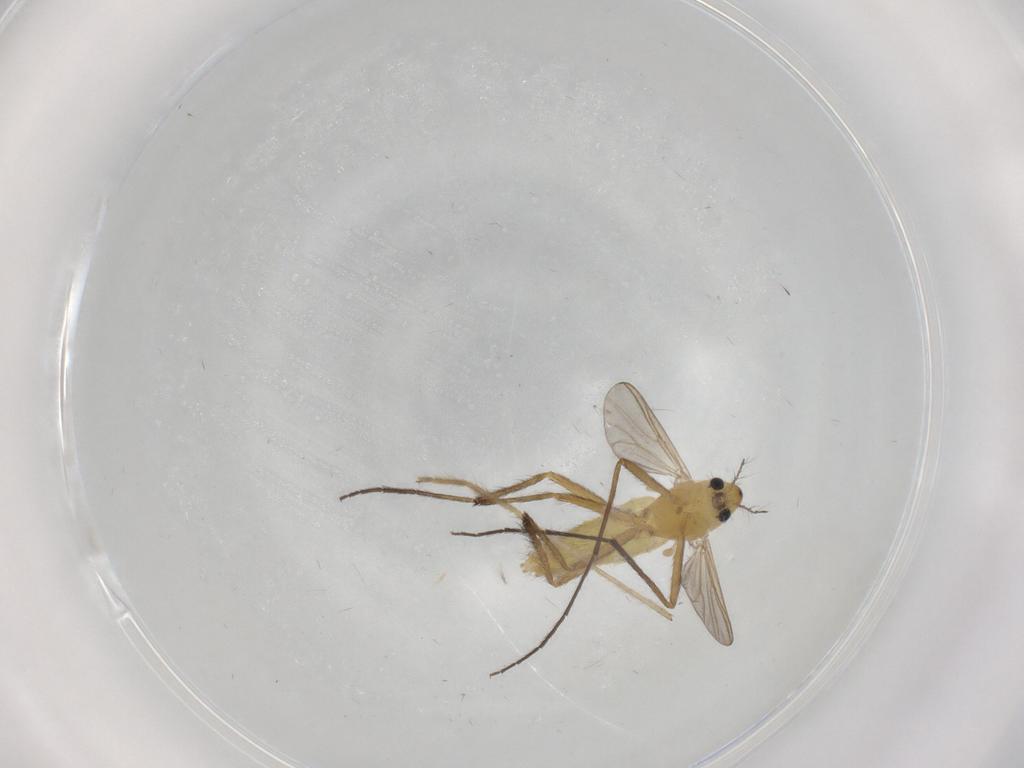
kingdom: Animalia
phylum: Arthropoda
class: Insecta
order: Diptera
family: Chironomidae
